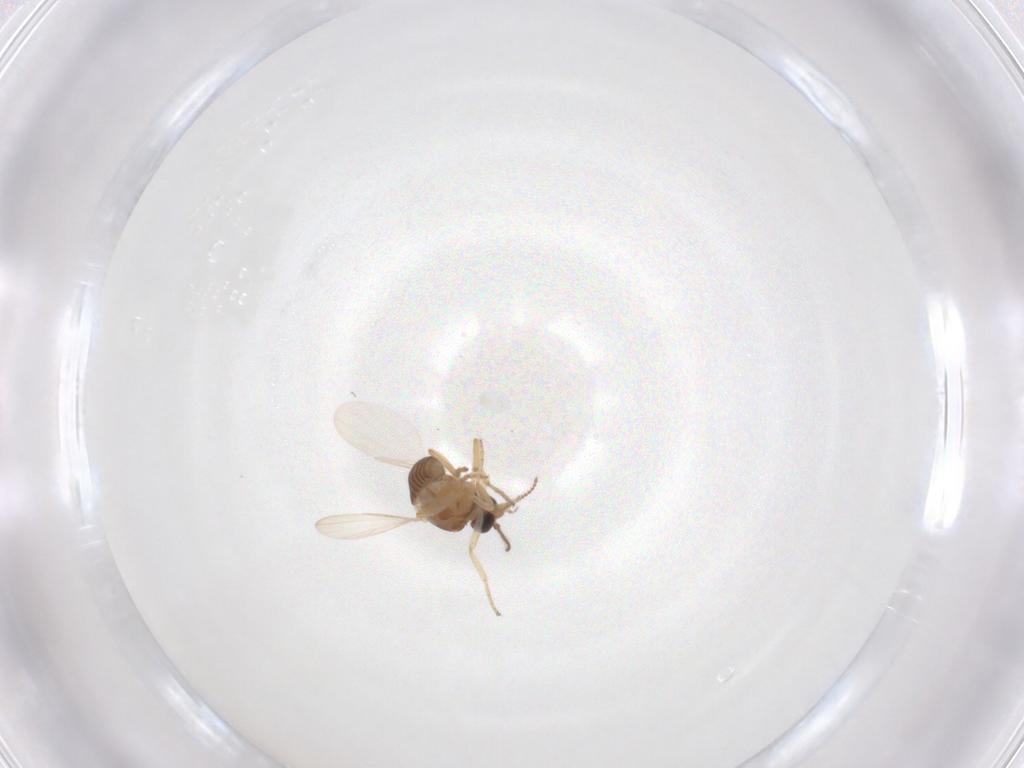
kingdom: Animalia
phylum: Arthropoda
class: Insecta
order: Diptera
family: Ceratopogonidae
